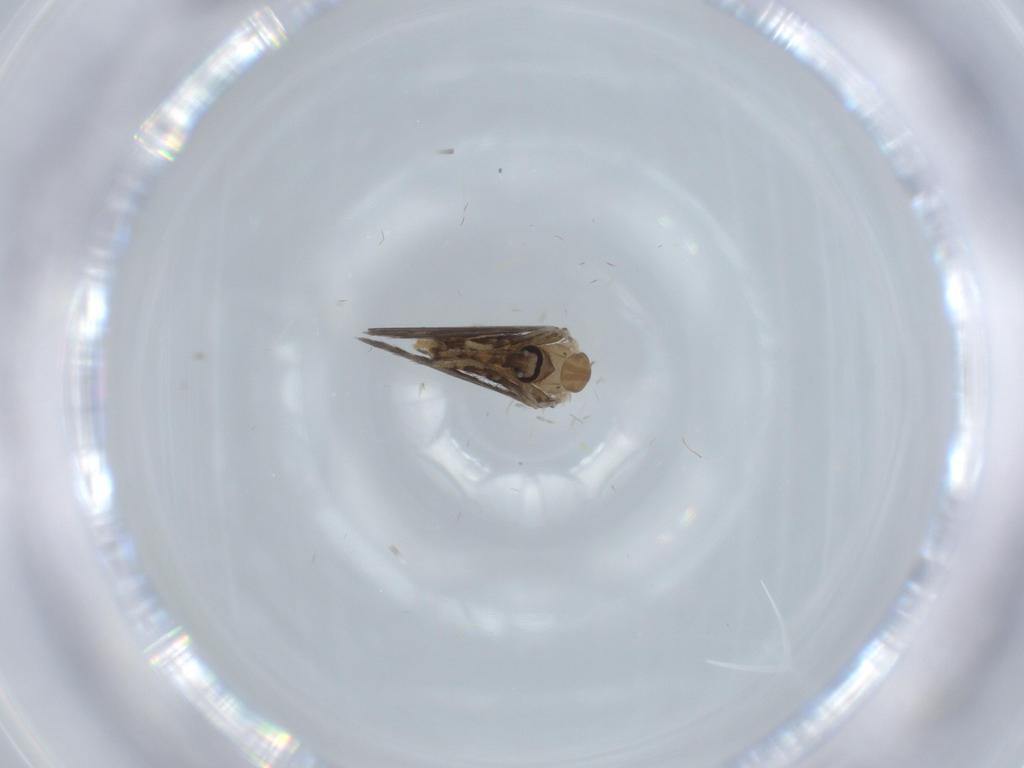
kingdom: Animalia
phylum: Arthropoda
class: Insecta
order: Diptera
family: Psychodidae
